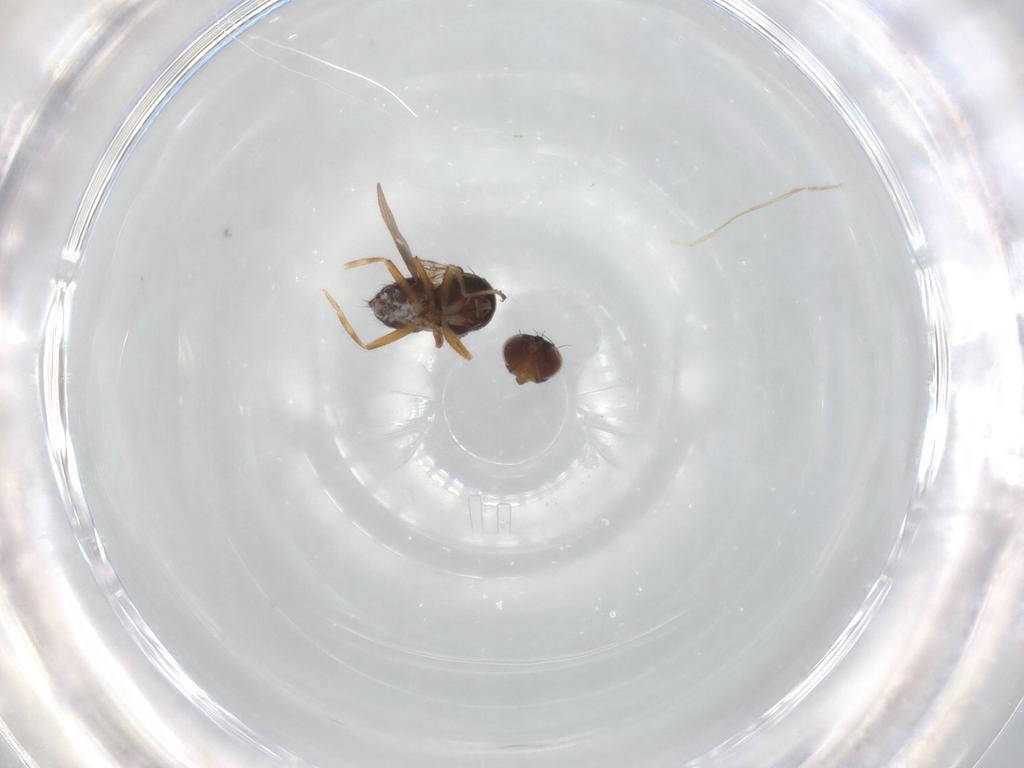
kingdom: Animalia
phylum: Arthropoda
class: Insecta
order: Diptera
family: Ephydridae
